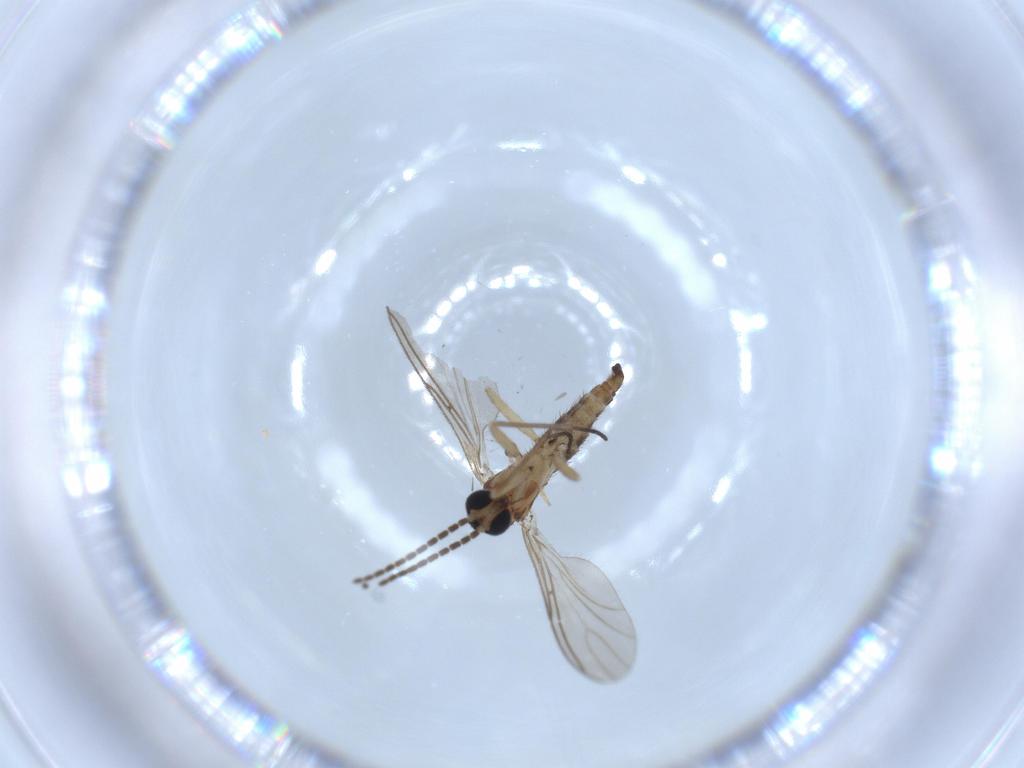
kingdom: Animalia
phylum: Arthropoda
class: Insecta
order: Diptera
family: Sciaridae
